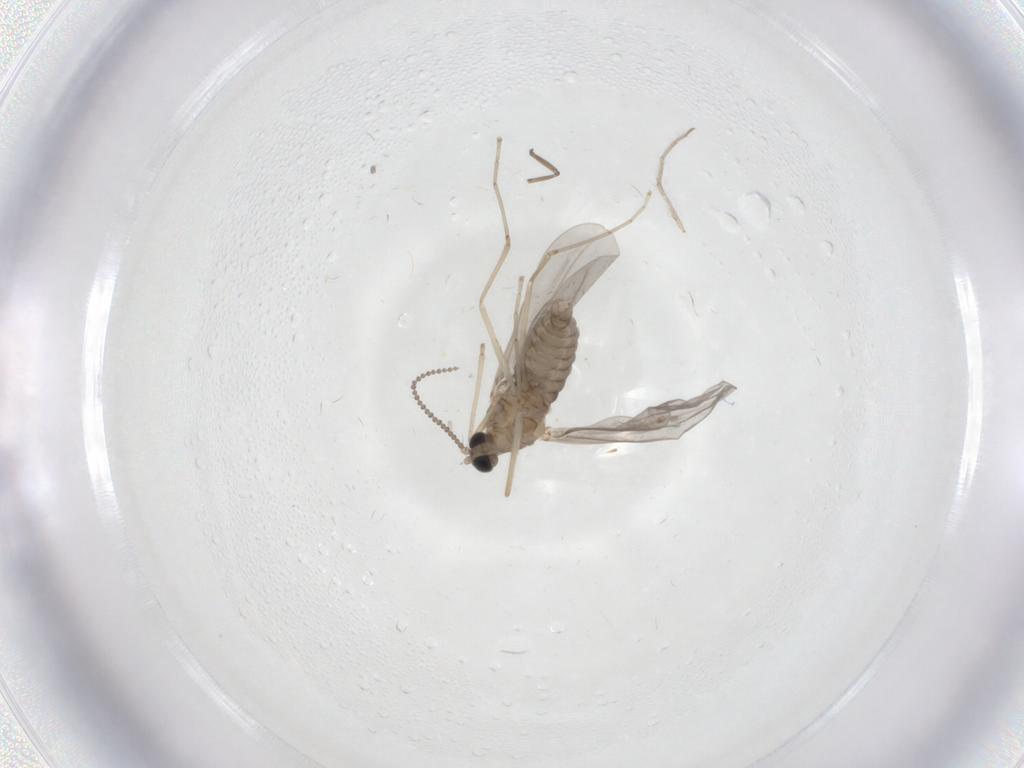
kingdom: Animalia
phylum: Arthropoda
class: Insecta
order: Diptera
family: Cecidomyiidae
